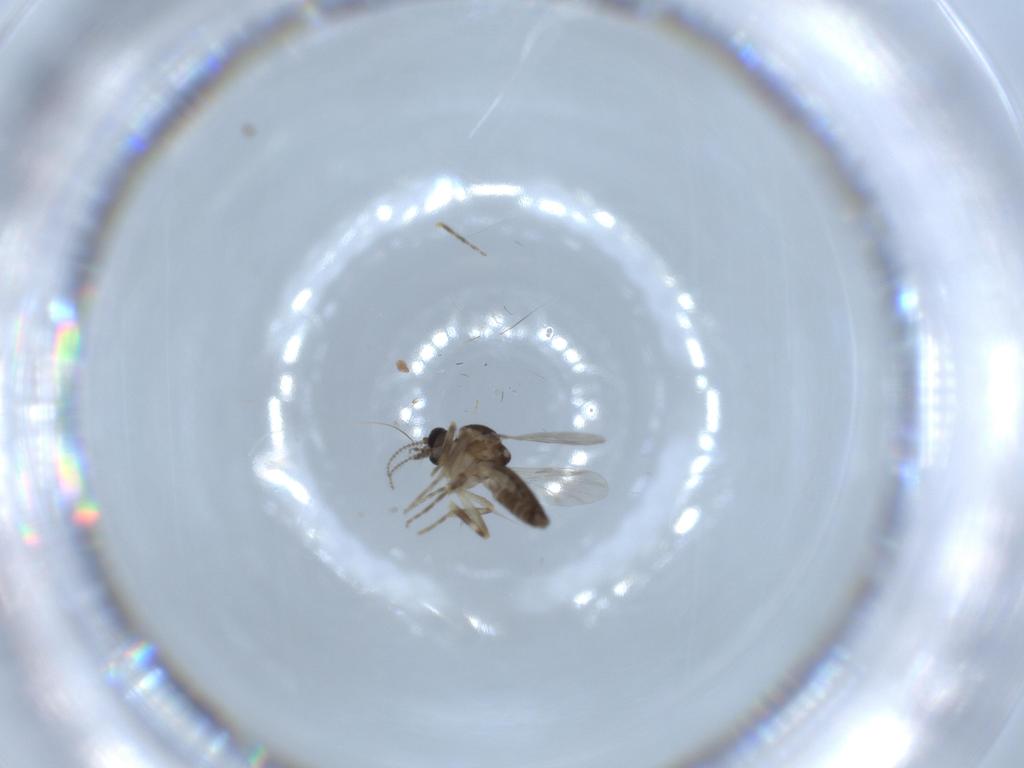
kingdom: Animalia
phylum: Arthropoda
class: Insecta
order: Diptera
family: Ceratopogonidae
